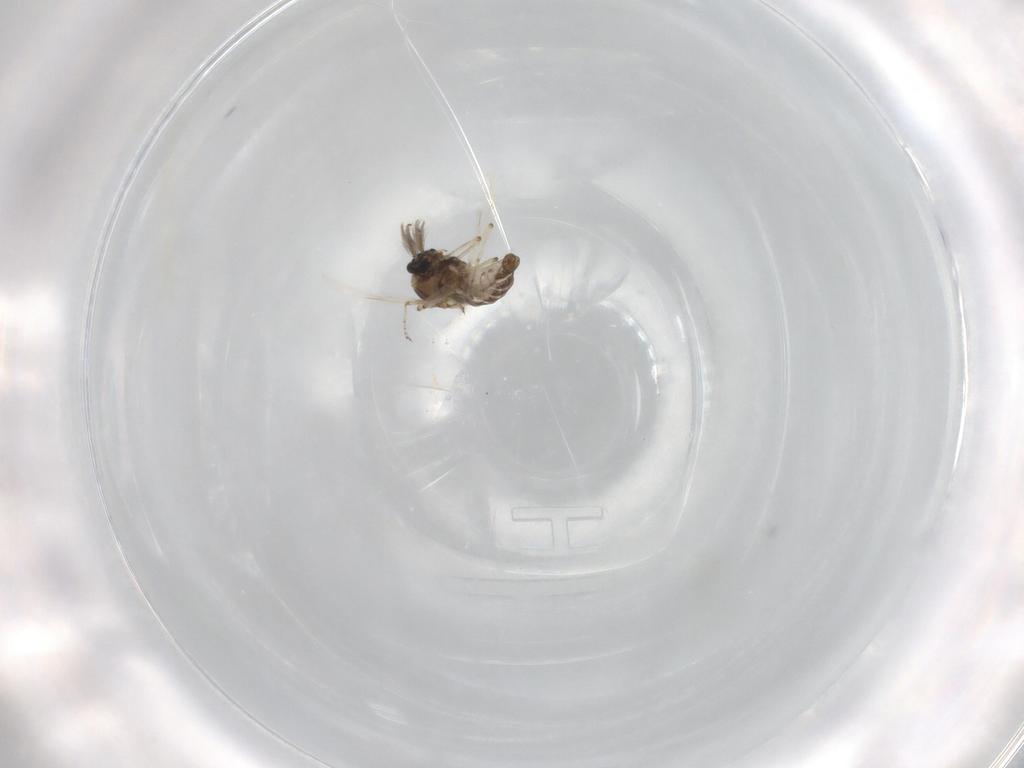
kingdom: Animalia
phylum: Arthropoda
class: Insecta
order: Diptera
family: Ceratopogonidae
